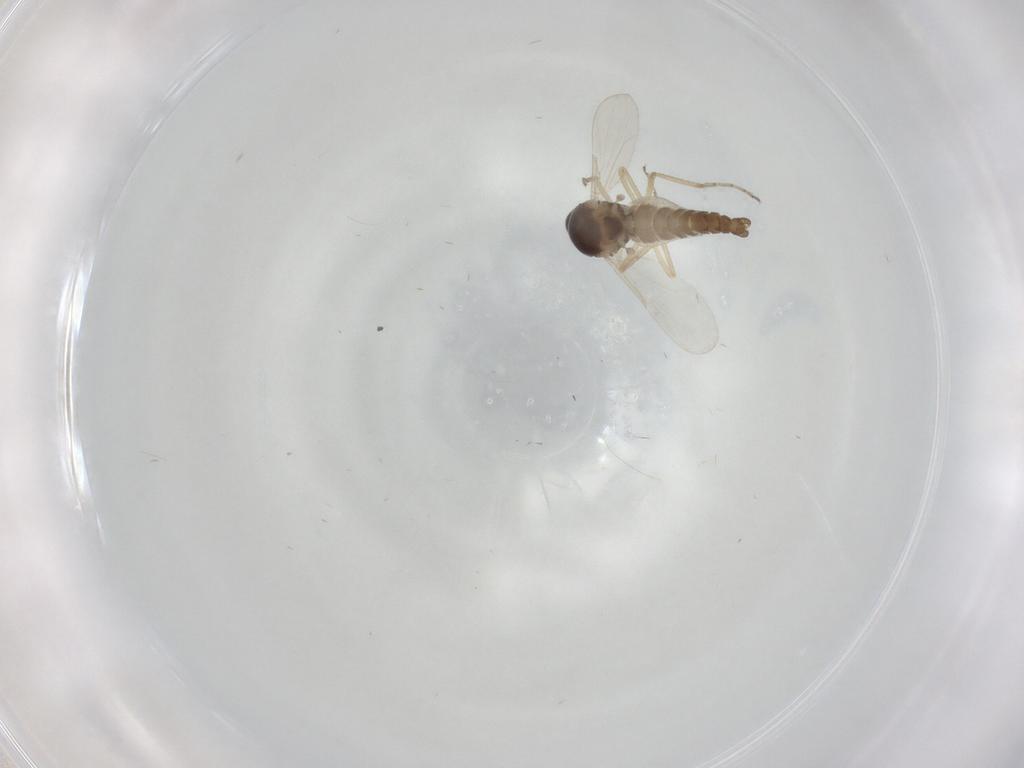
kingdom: Animalia
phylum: Arthropoda
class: Insecta
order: Diptera
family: Ceratopogonidae
